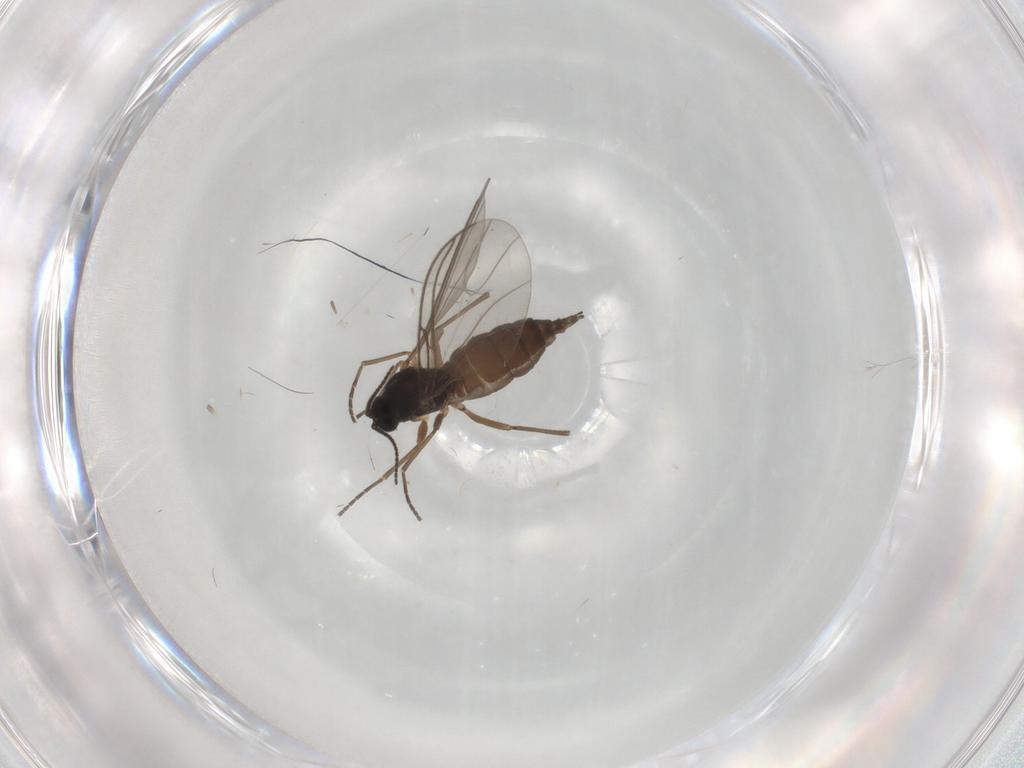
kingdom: Animalia
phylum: Arthropoda
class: Insecta
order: Diptera
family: Sciaridae
